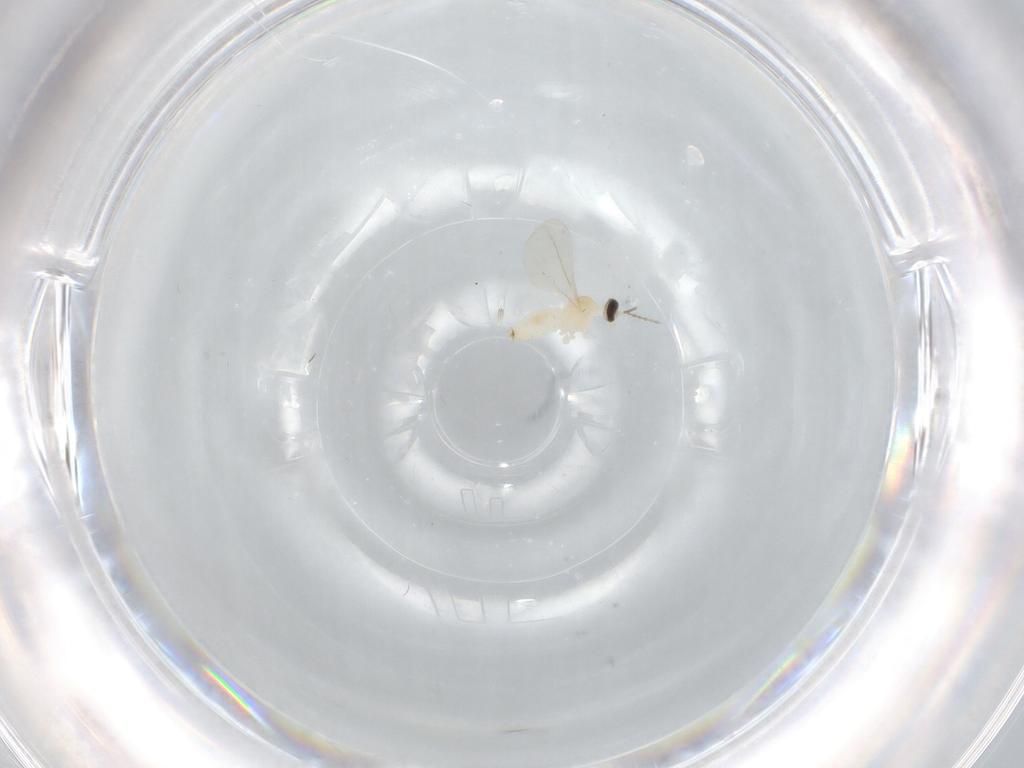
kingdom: Animalia
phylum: Arthropoda
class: Insecta
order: Diptera
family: Cecidomyiidae
